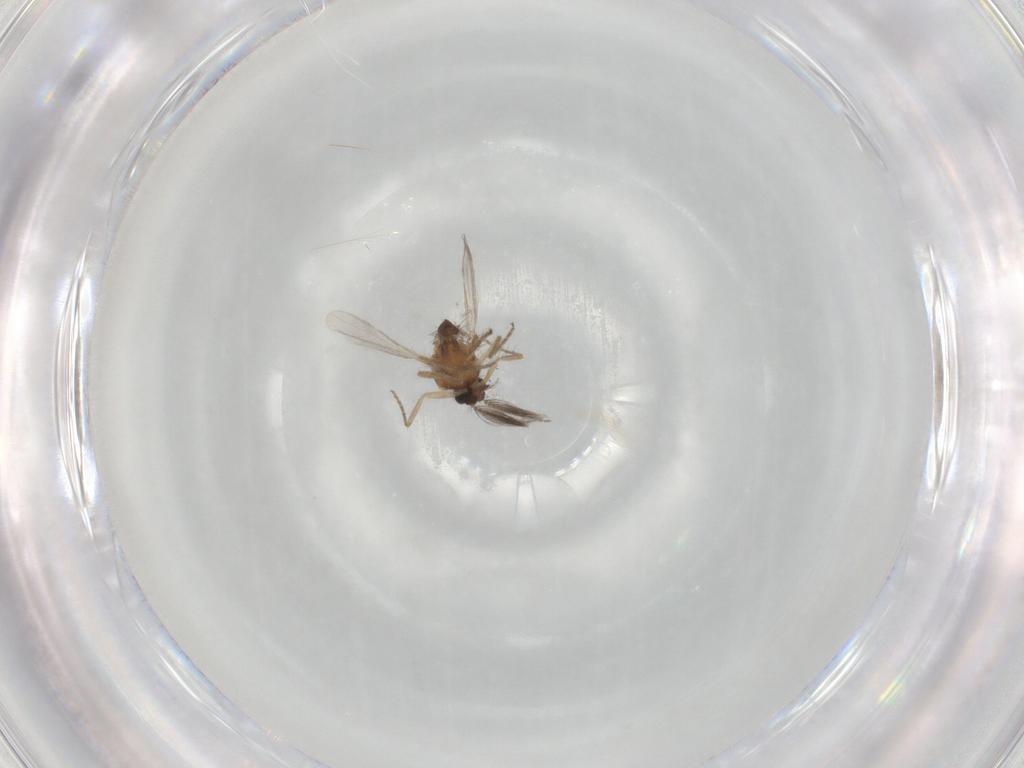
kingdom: Animalia
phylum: Arthropoda
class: Insecta
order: Diptera
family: Ceratopogonidae
